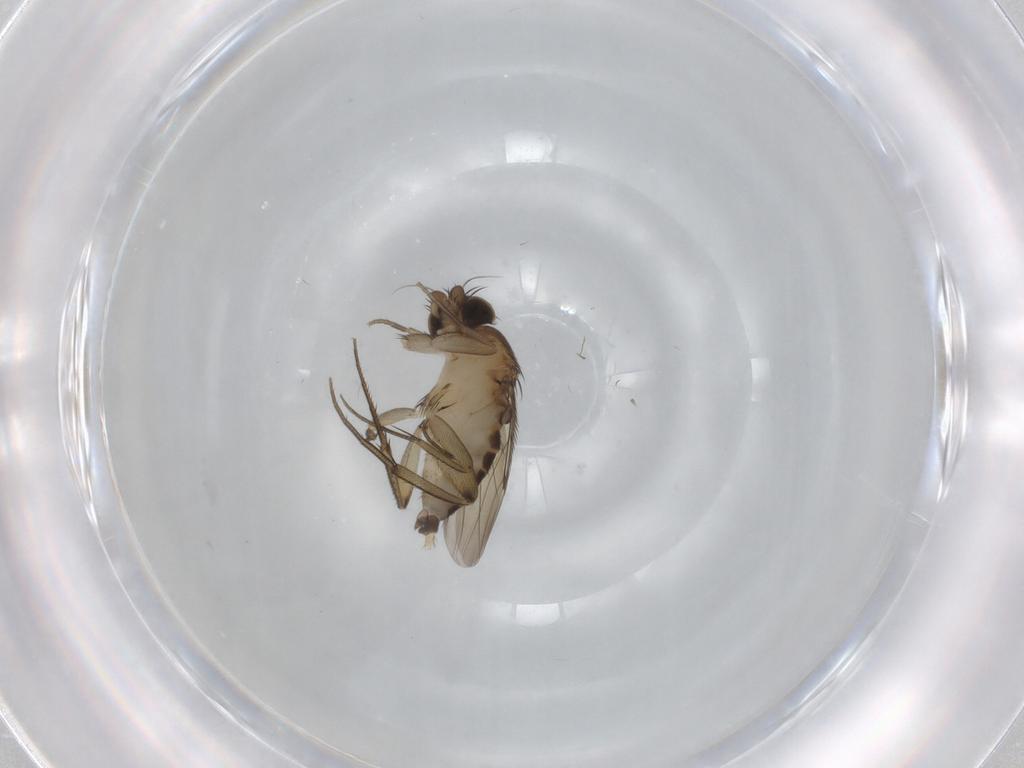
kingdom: Animalia
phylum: Arthropoda
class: Insecta
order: Diptera
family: Phoridae
